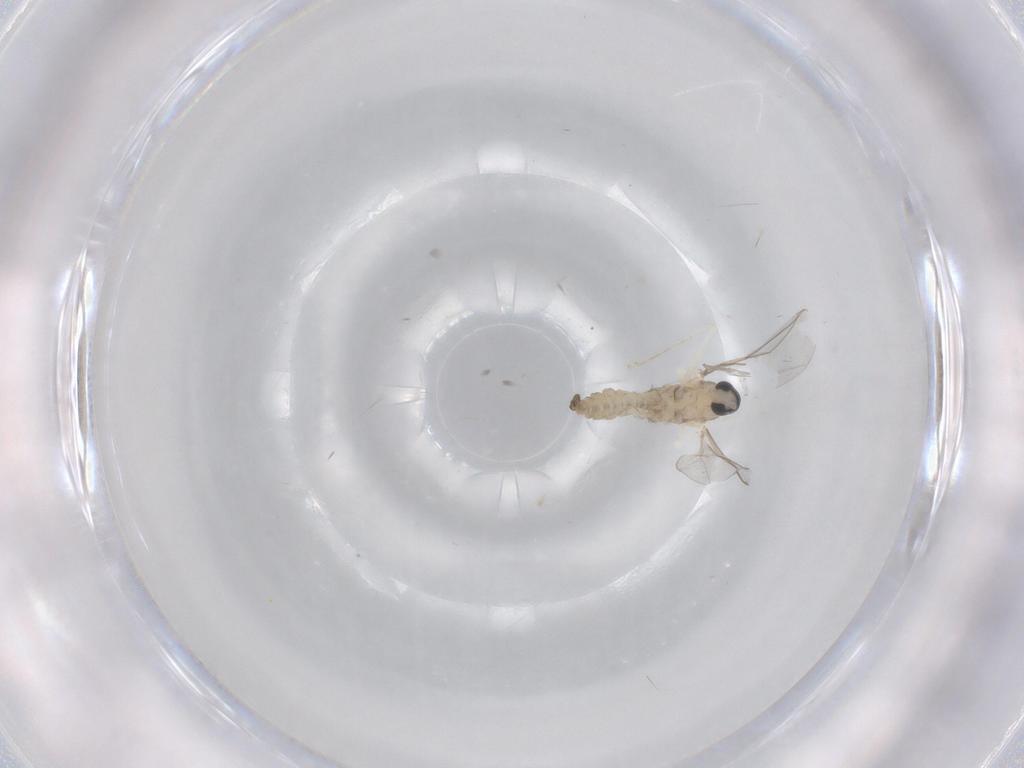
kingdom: Animalia
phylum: Arthropoda
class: Insecta
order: Diptera
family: Cecidomyiidae
